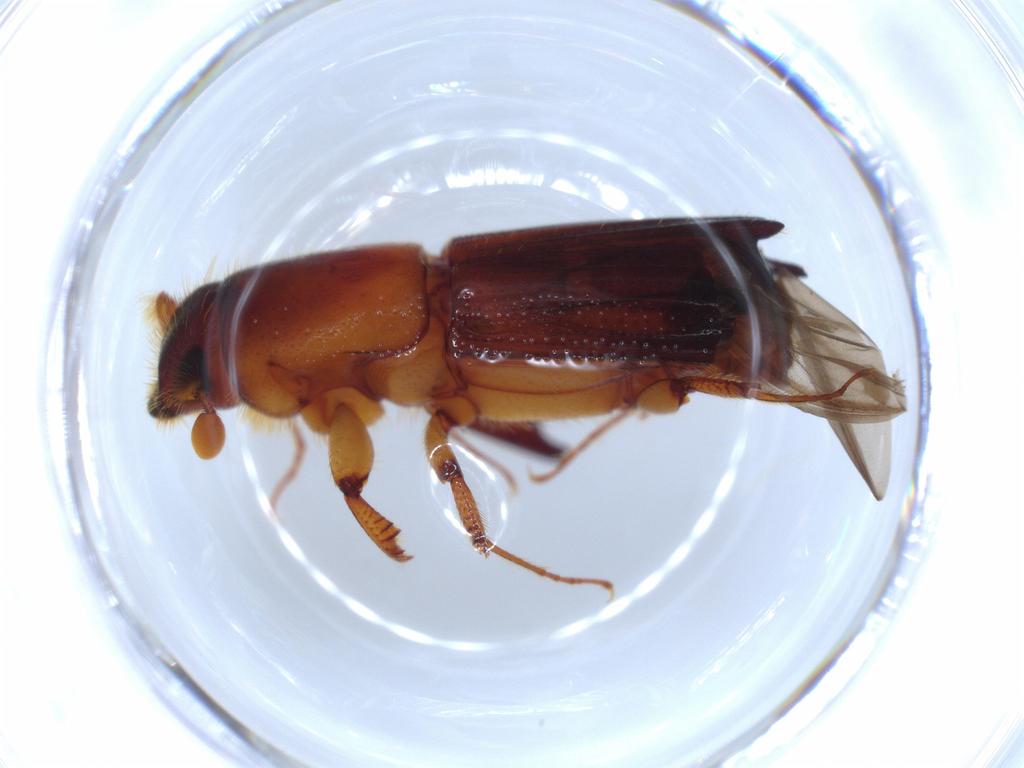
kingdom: Animalia
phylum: Arthropoda
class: Insecta
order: Coleoptera
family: Curculionidae
